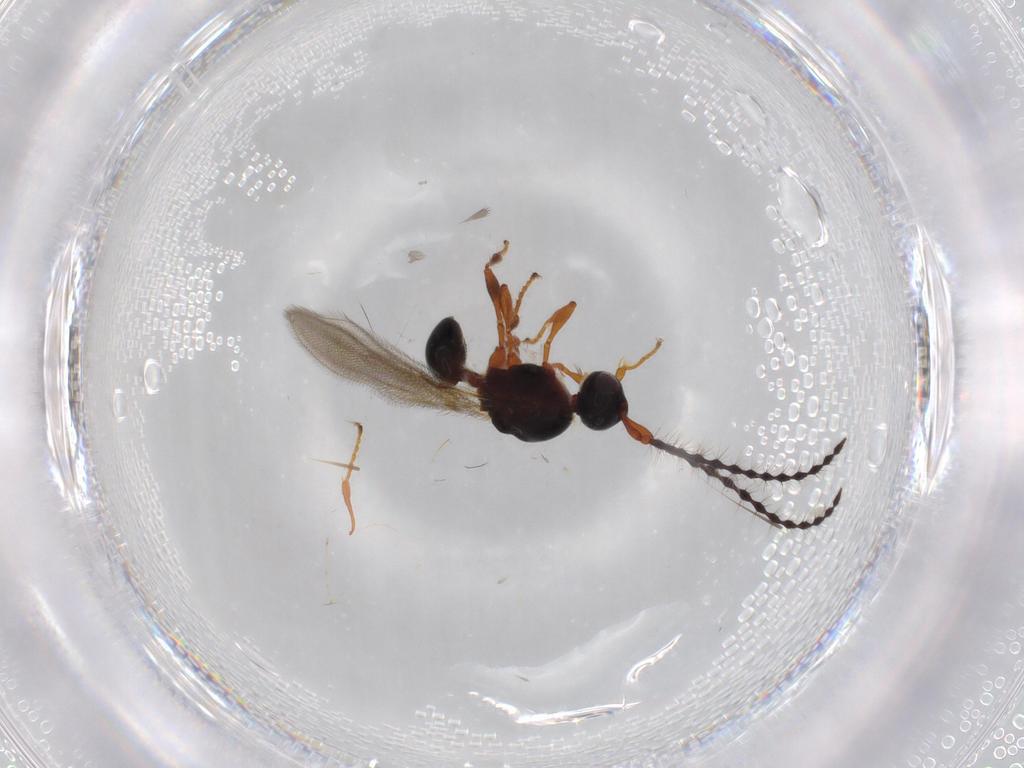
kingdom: Animalia
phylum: Arthropoda
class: Insecta
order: Hymenoptera
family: Diapriidae
